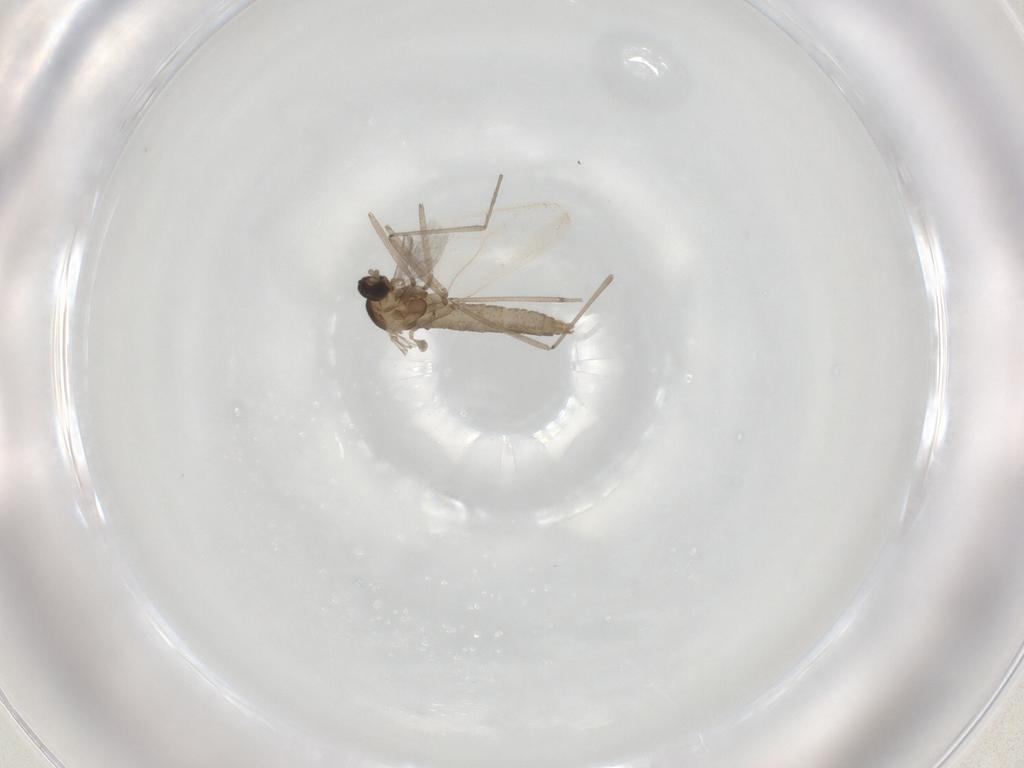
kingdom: Animalia
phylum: Arthropoda
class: Insecta
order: Diptera
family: Cecidomyiidae
